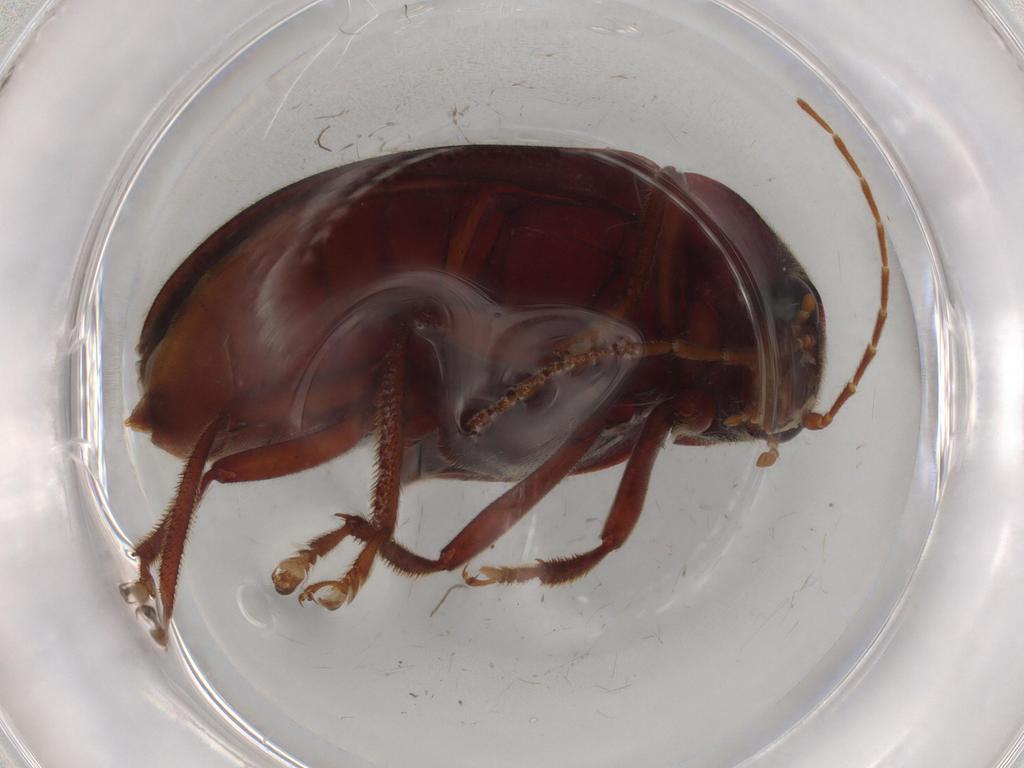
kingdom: Animalia
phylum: Arthropoda
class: Insecta
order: Coleoptera
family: Ptilodactylidae
